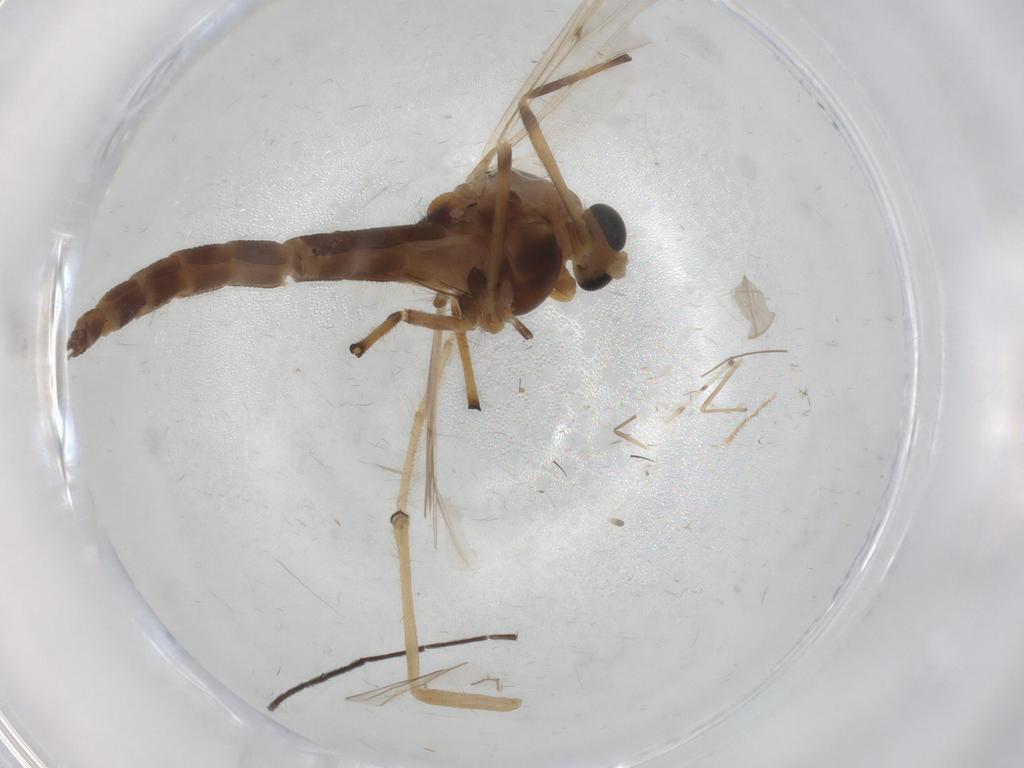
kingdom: Animalia
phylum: Arthropoda
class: Insecta
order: Diptera
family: Chironomidae
